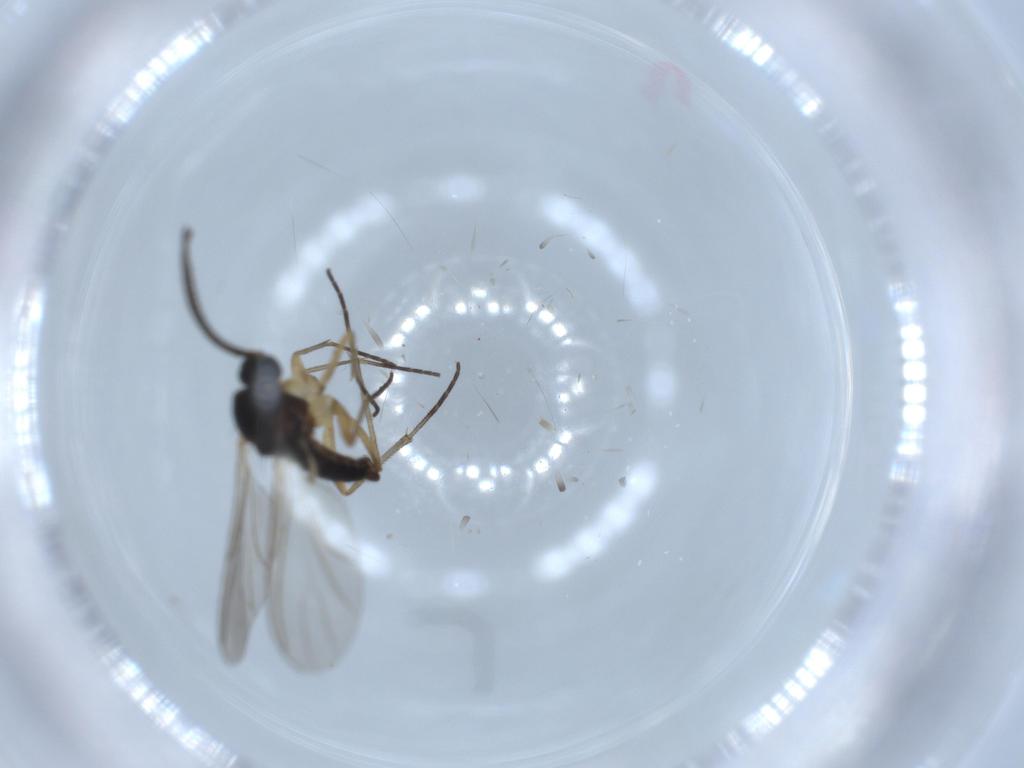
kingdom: Animalia
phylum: Arthropoda
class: Insecta
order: Diptera
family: Sciaridae
